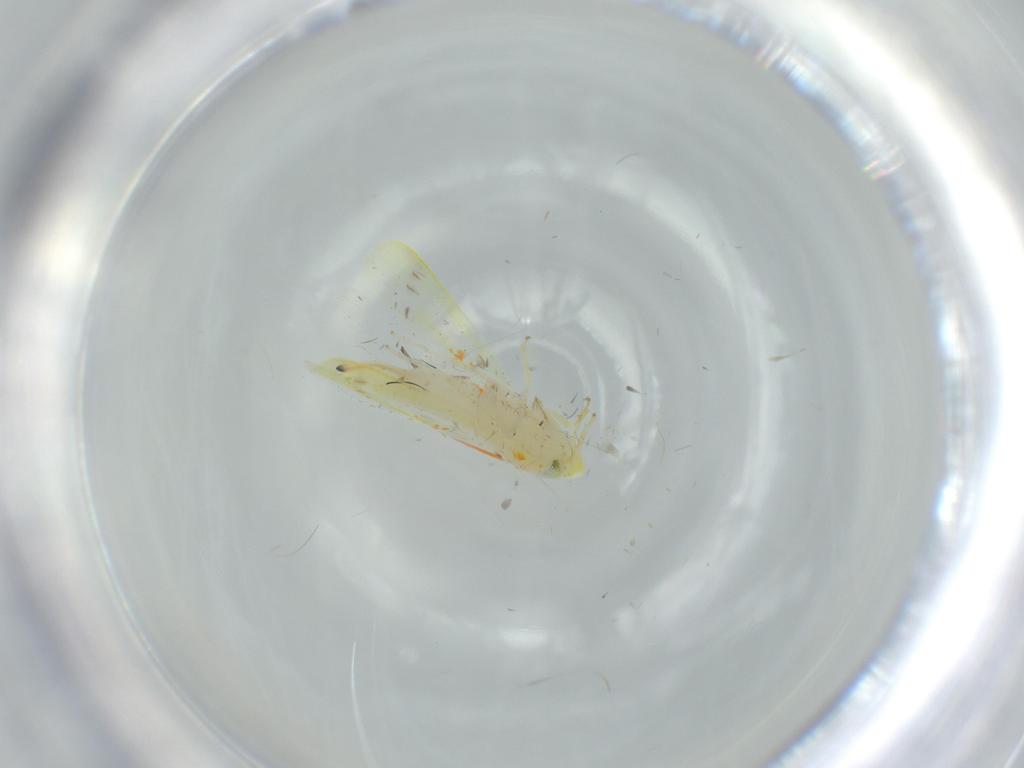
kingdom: Animalia
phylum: Arthropoda
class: Insecta
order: Hemiptera
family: Cicadellidae
